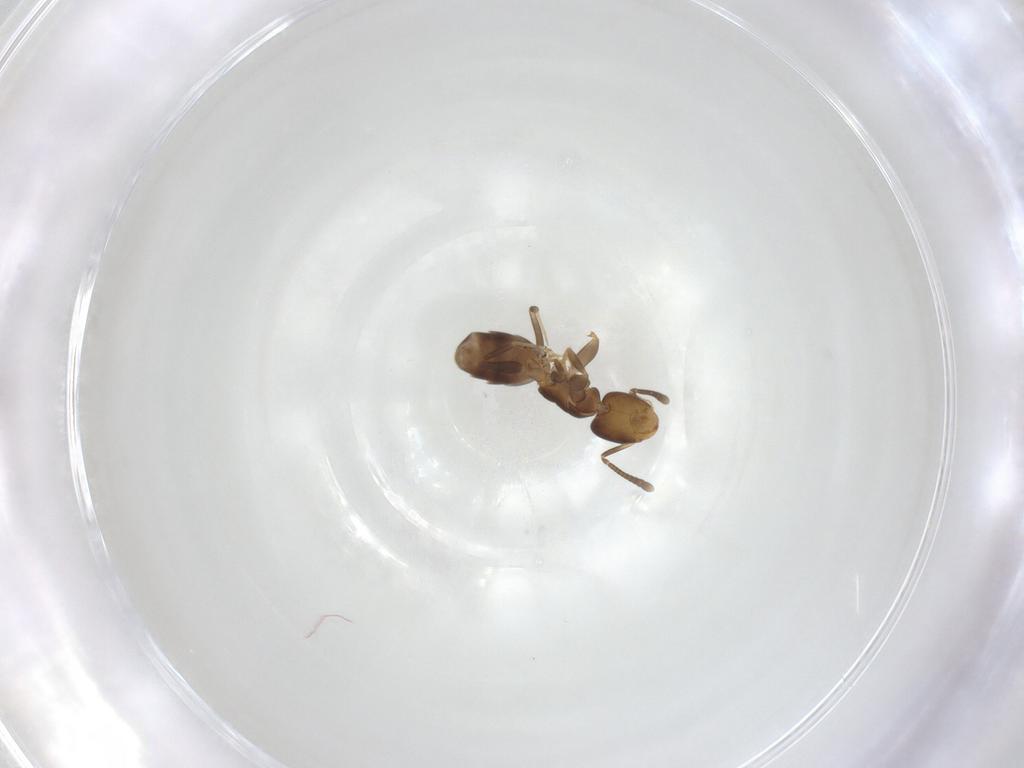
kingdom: Animalia
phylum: Arthropoda
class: Insecta
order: Hymenoptera
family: Formicidae
